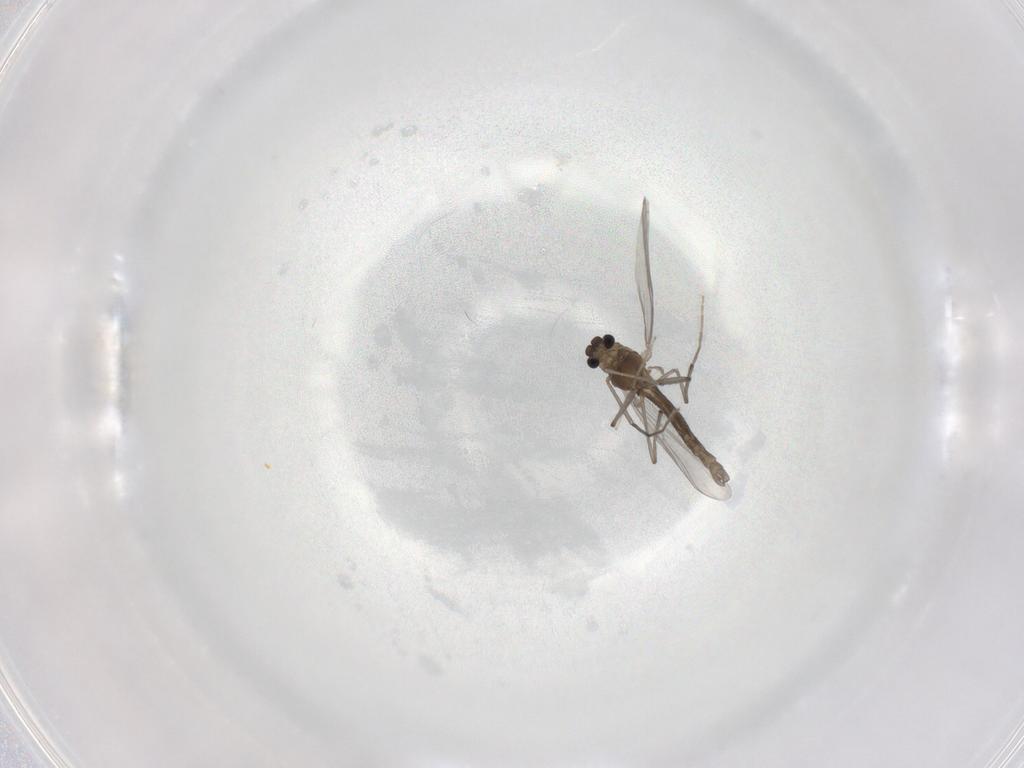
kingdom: Animalia
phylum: Arthropoda
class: Insecta
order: Diptera
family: Chironomidae
